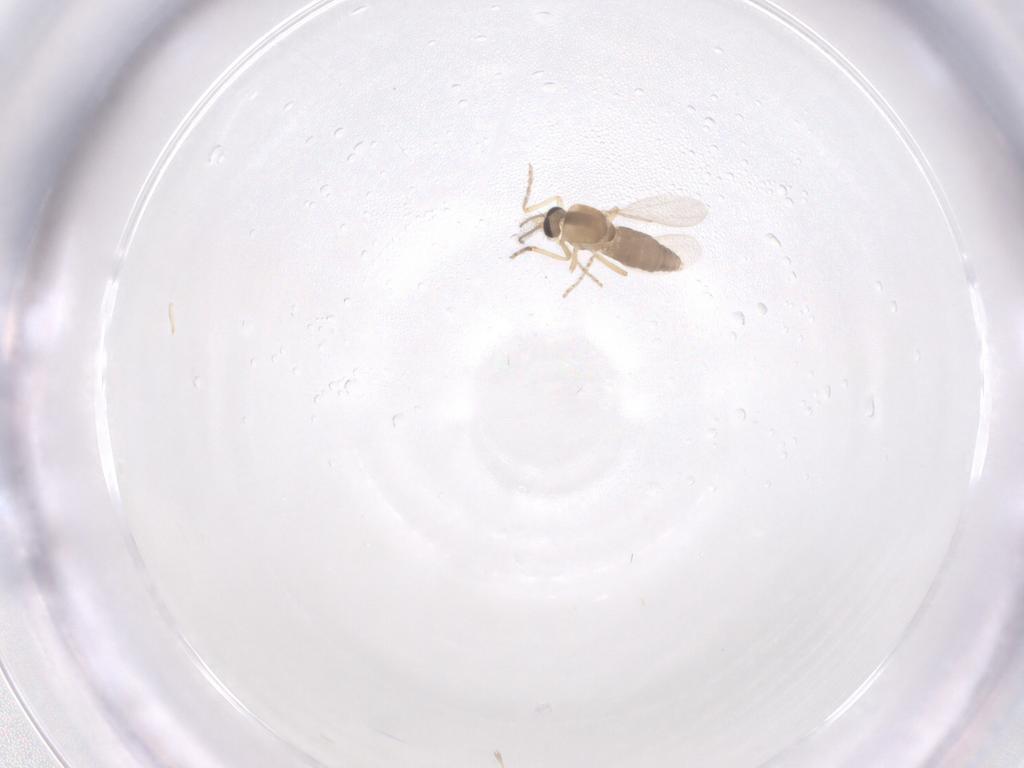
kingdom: Animalia
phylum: Arthropoda
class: Insecta
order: Diptera
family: Ceratopogonidae
